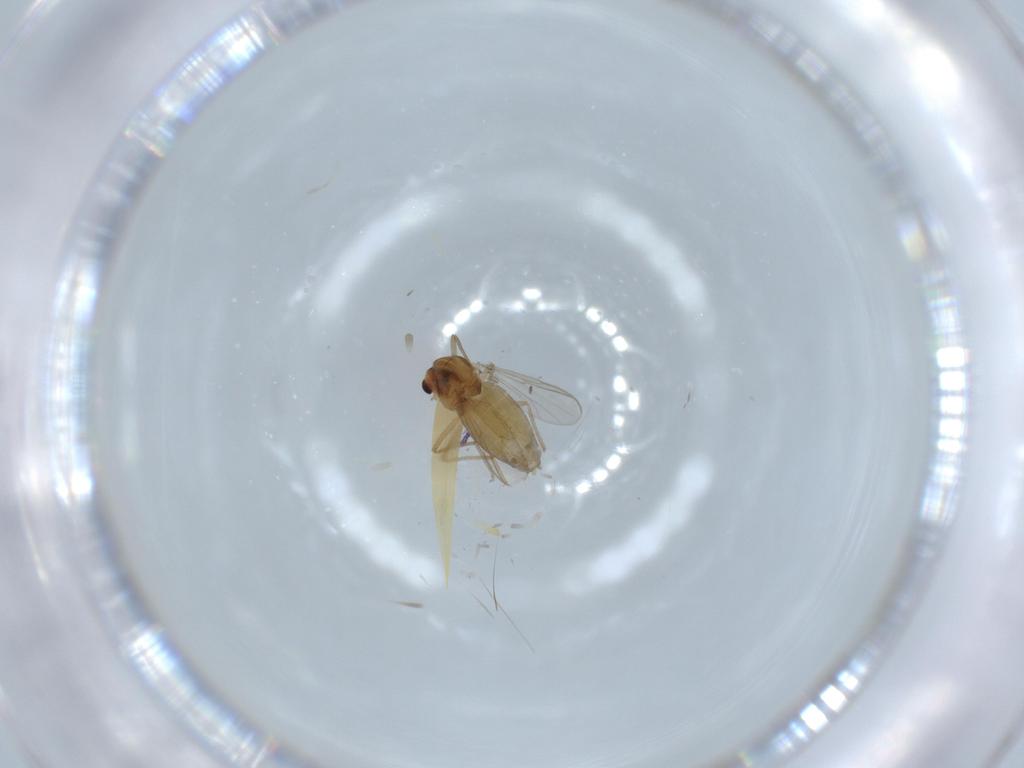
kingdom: Animalia
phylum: Arthropoda
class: Insecta
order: Diptera
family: Chironomidae
